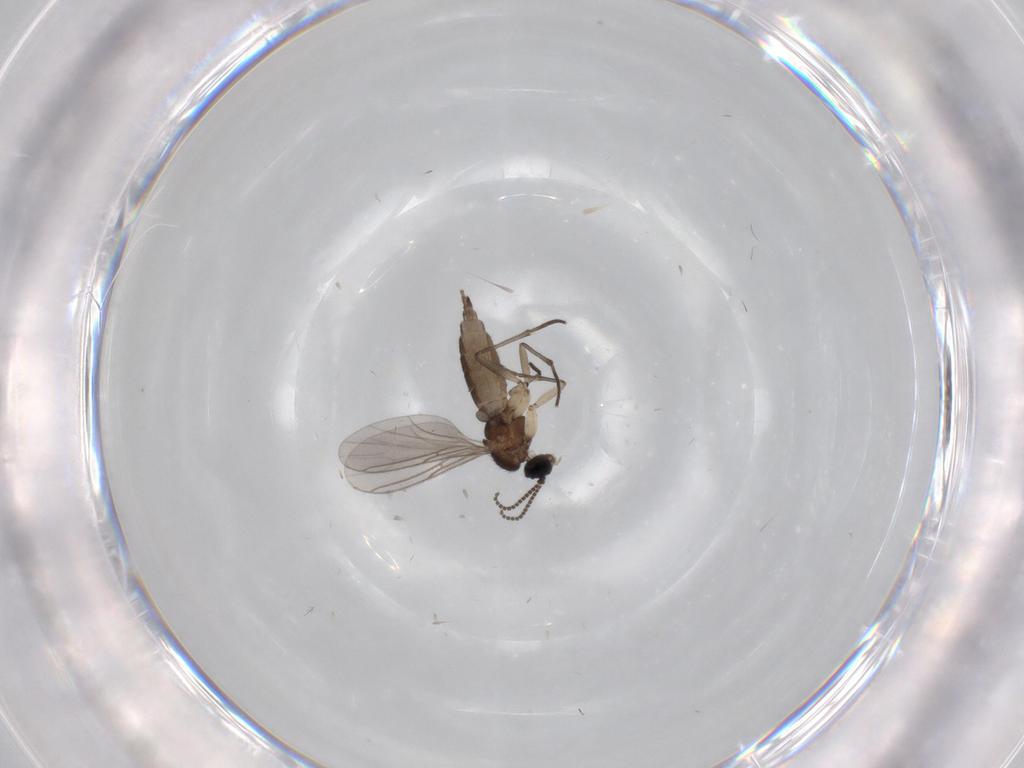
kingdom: Animalia
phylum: Arthropoda
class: Insecta
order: Diptera
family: Sciaridae
